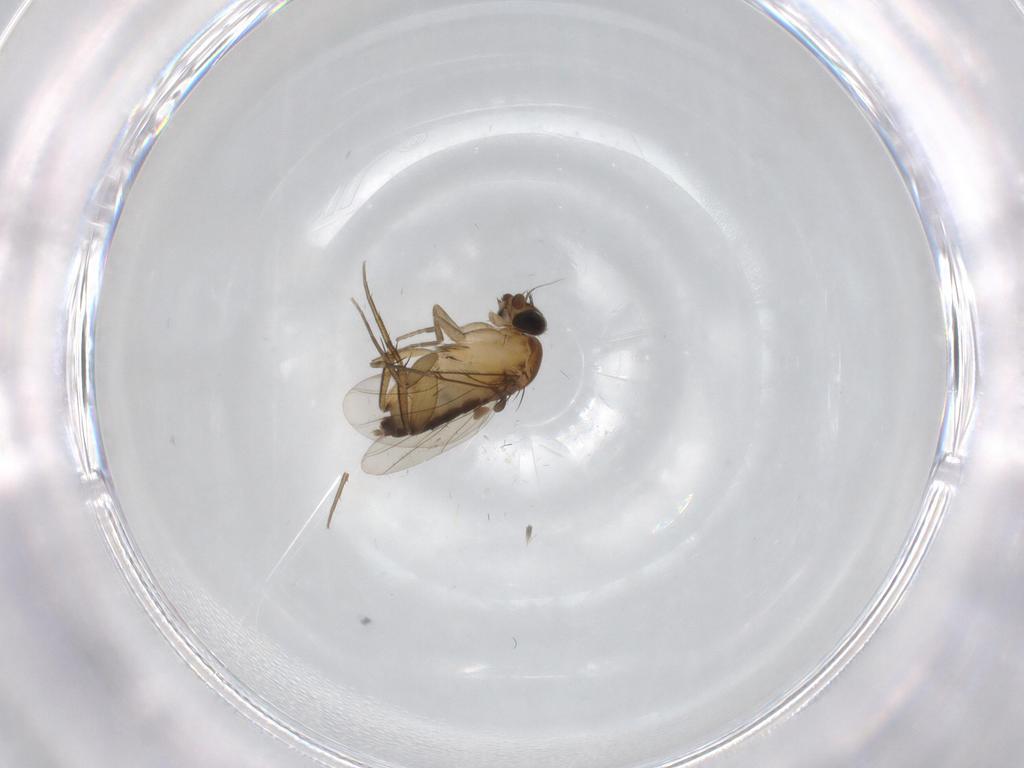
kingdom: Animalia
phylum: Arthropoda
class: Insecta
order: Diptera
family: Phoridae
